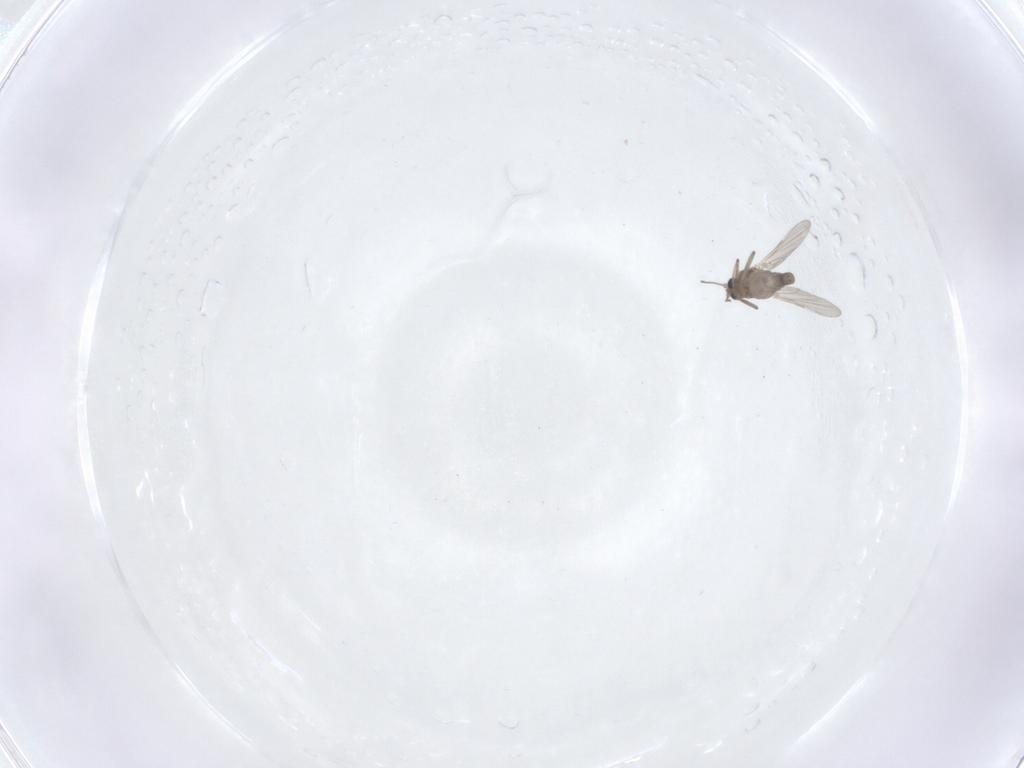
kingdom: Animalia
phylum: Arthropoda
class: Insecta
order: Diptera
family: Ceratopogonidae
